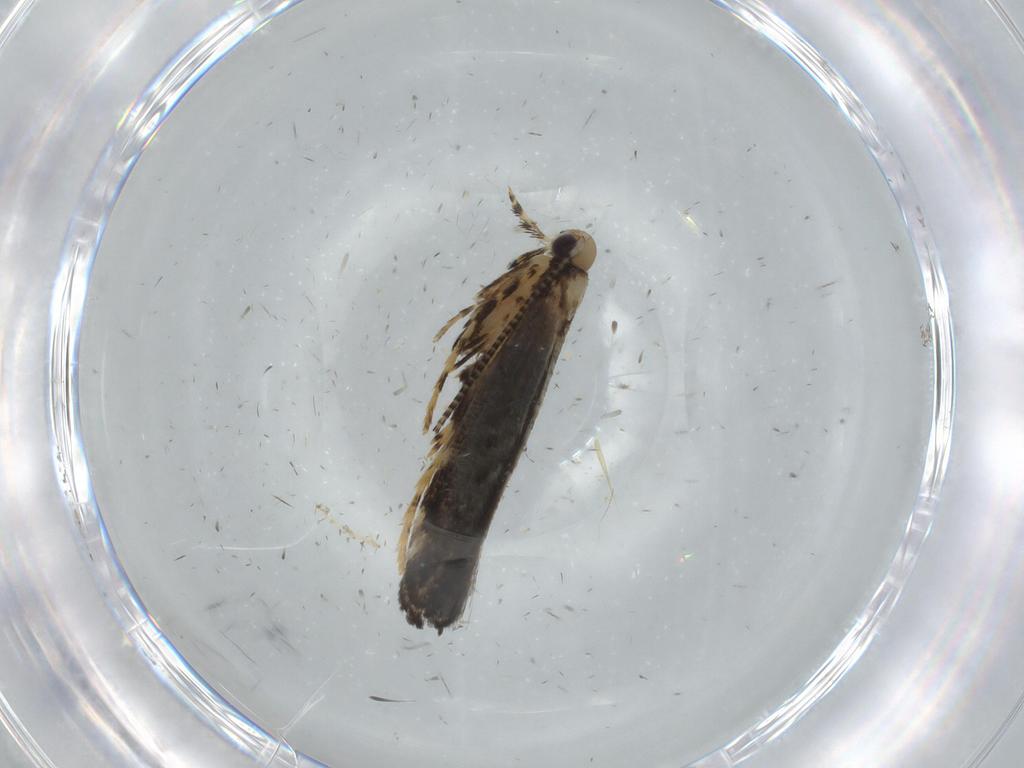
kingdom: Animalia
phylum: Arthropoda
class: Insecta
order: Lepidoptera
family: Gracillariidae
